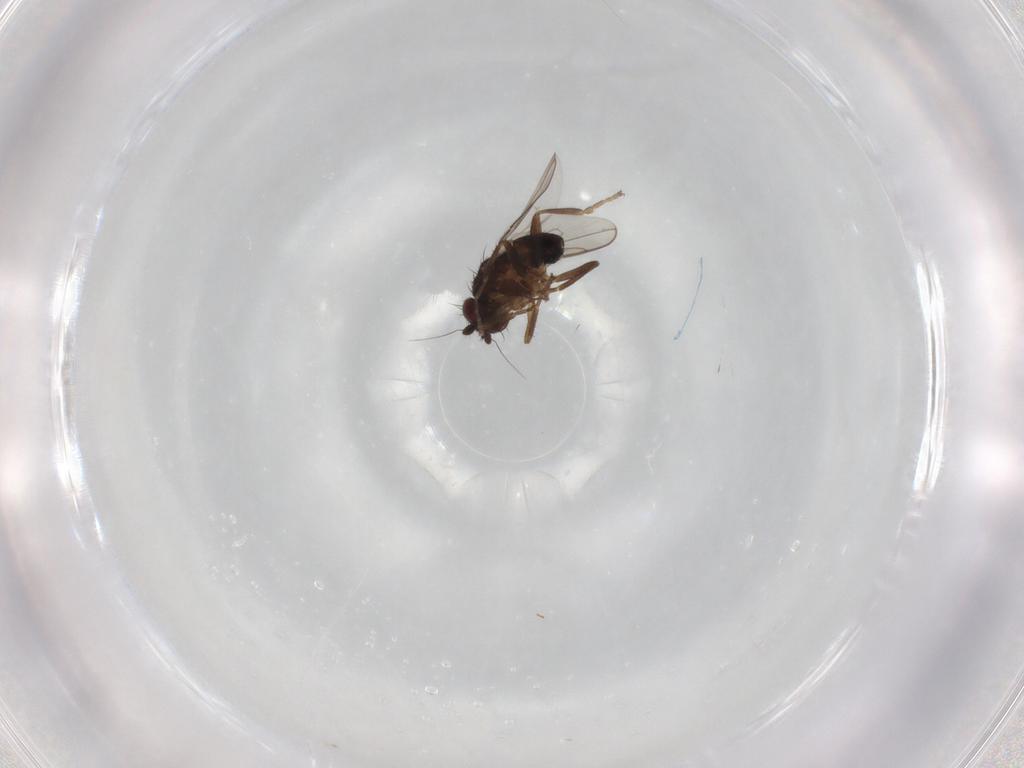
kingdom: Animalia
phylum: Arthropoda
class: Insecta
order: Diptera
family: Sphaeroceridae
